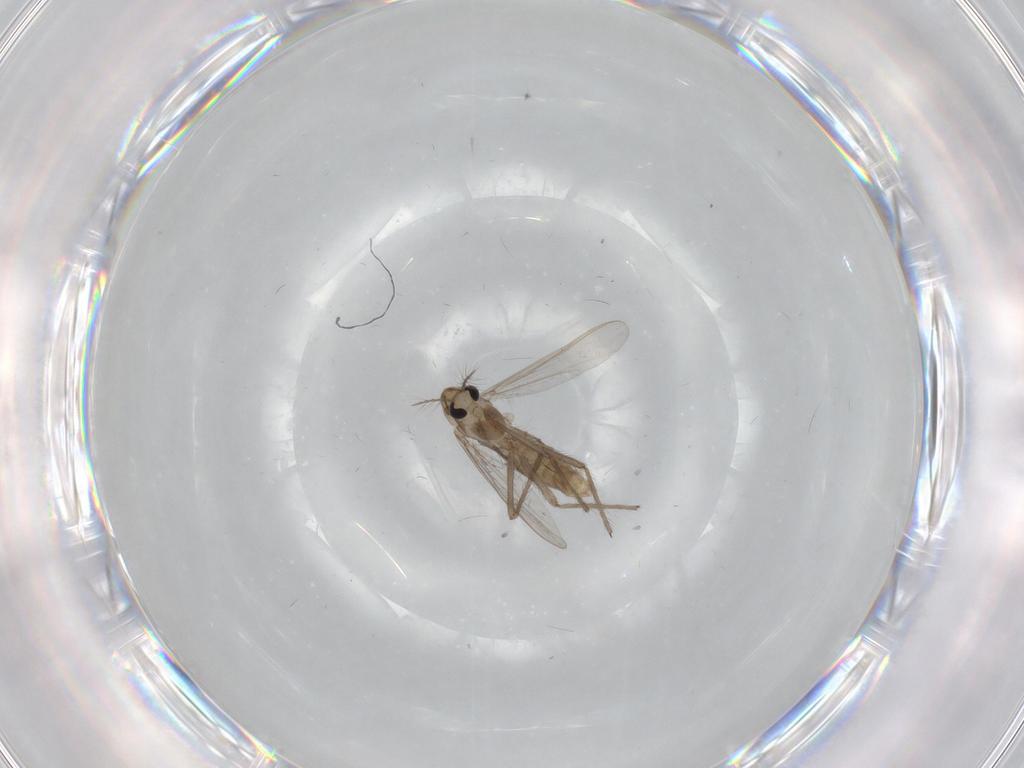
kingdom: Animalia
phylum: Arthropoda
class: Insecta
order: Diptera
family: Chironomidae
